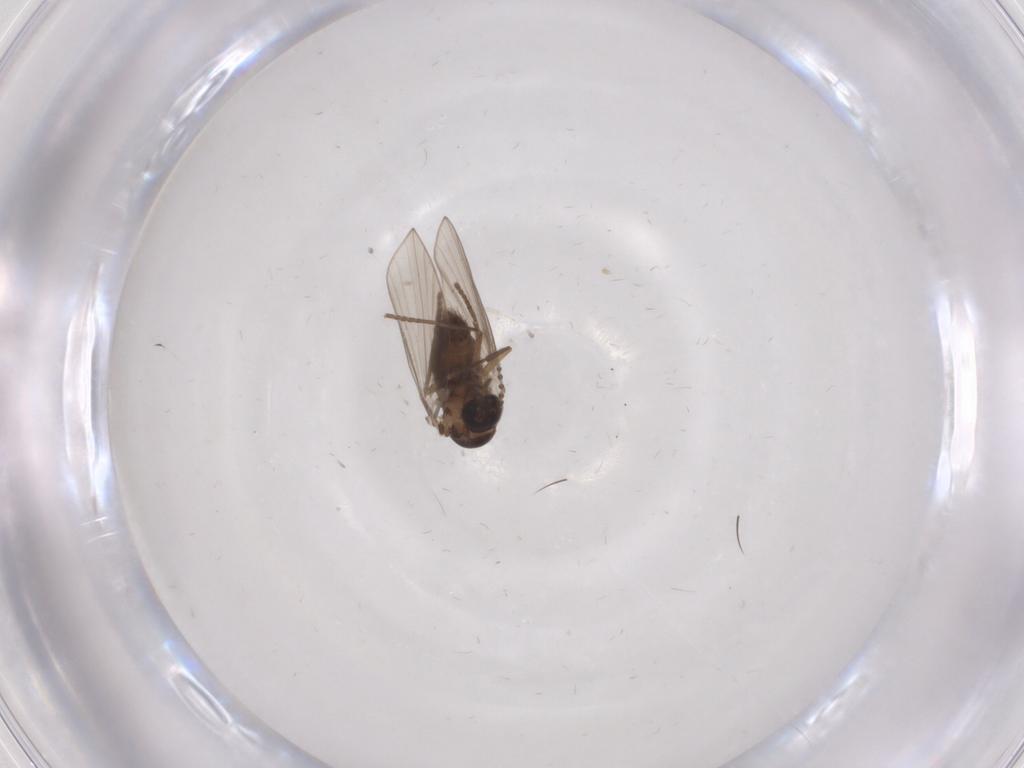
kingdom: Animalia
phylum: Arthropoda
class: Insecta
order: Diptera
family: Psychodidae
